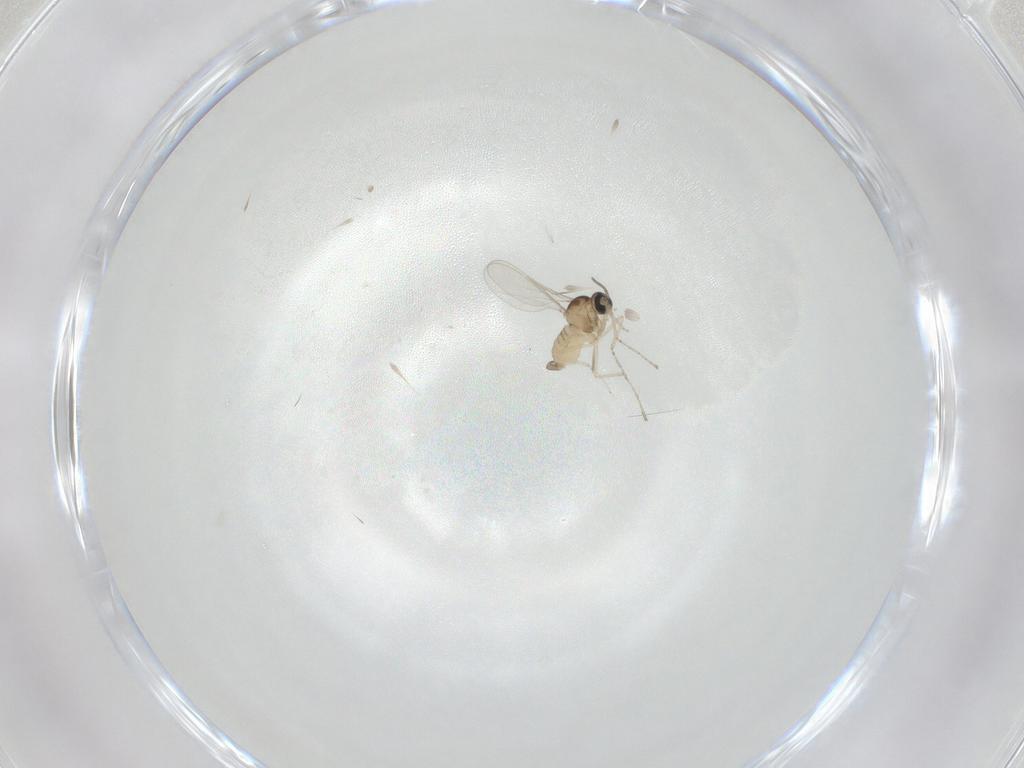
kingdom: Animalia
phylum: Arthropoda
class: Insecta
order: Diptera
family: Cecidomyiidae
